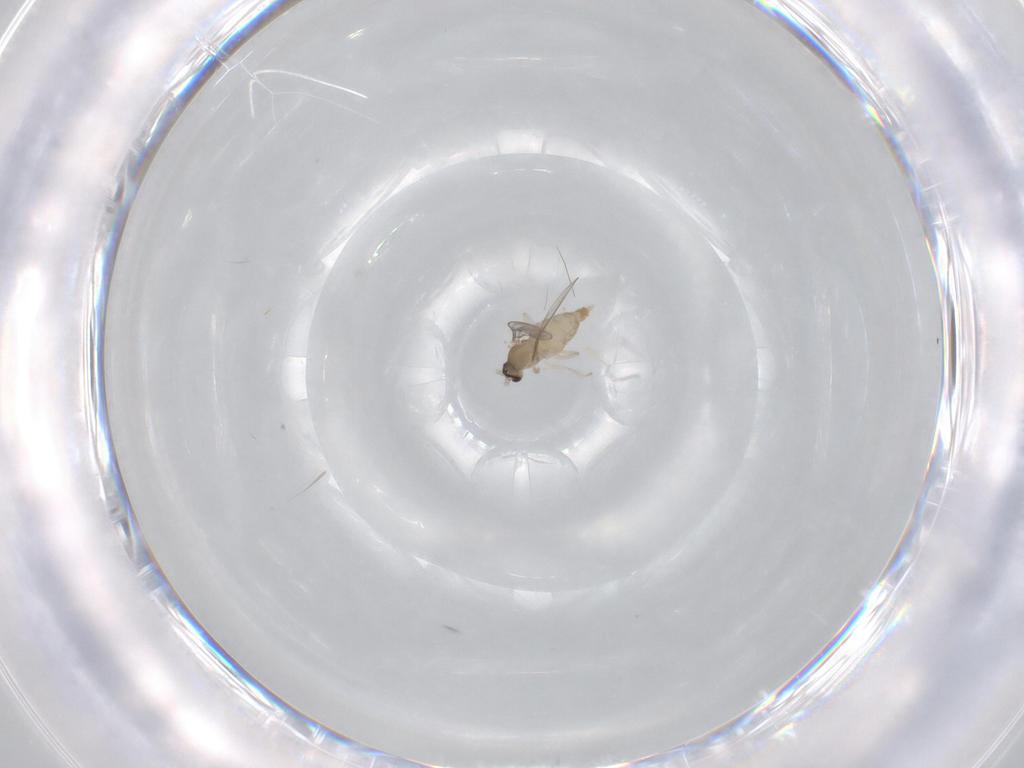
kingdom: Animalia
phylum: Arthropoda
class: Insecta
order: Diptera
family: Cecidomyiidae
